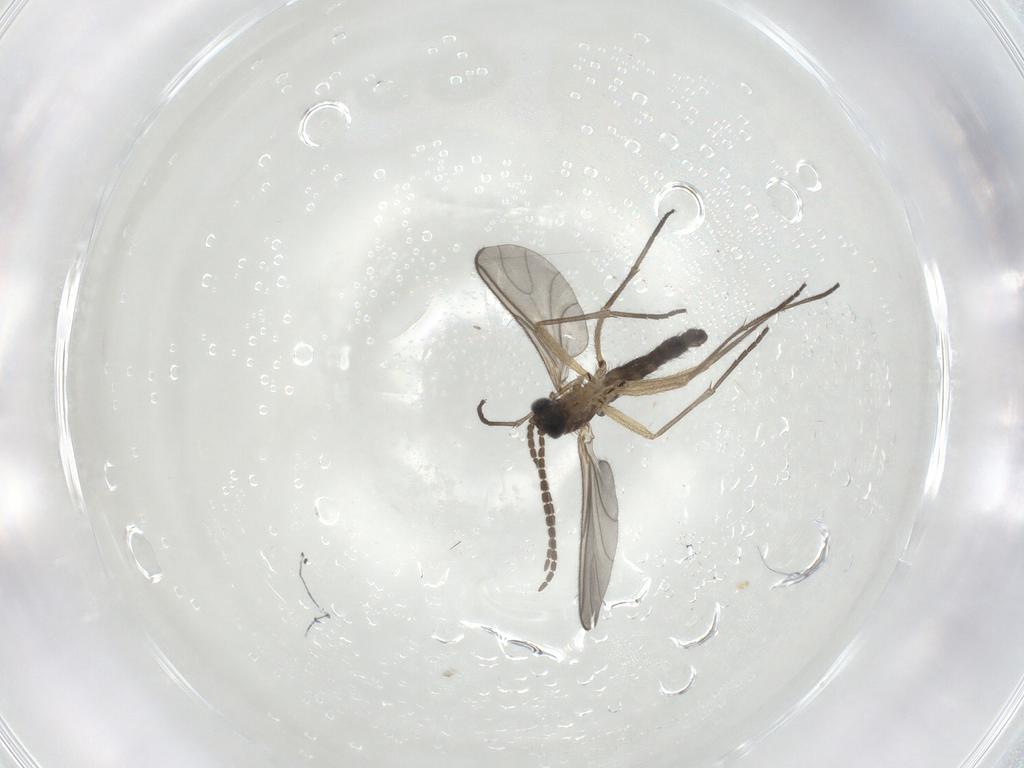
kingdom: Animalia
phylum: Arthropoda
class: Insecta
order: Diptera
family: Sciaridae
